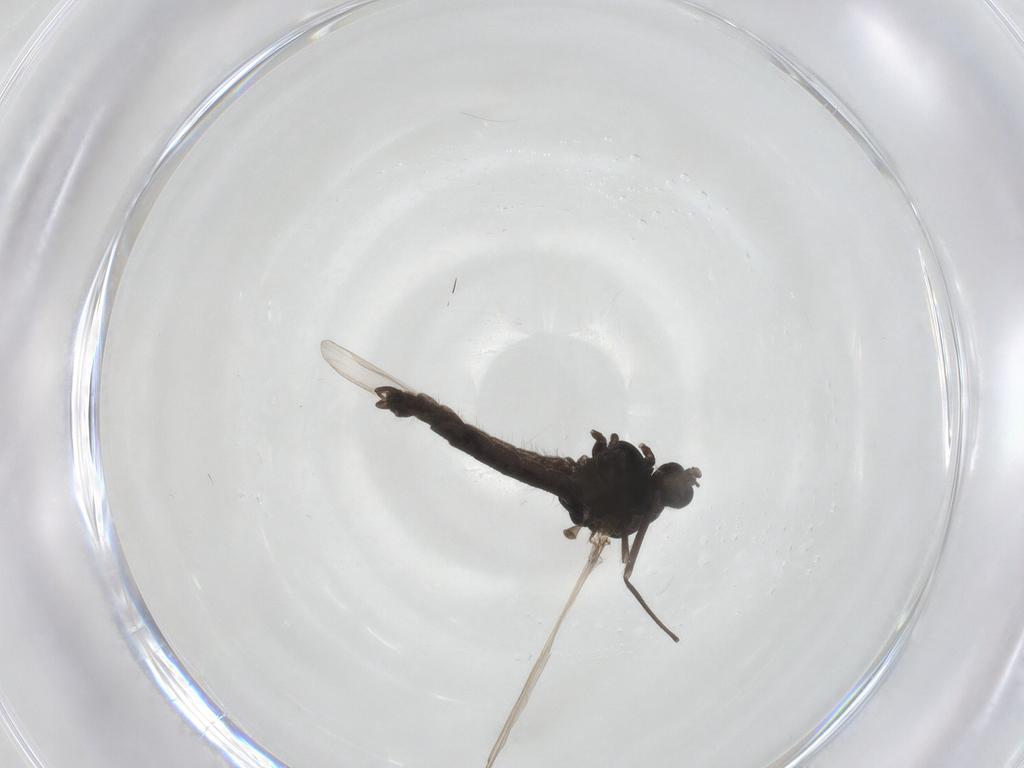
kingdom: Animalia
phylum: Arthropoda
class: Insecta
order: Diptera
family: Chironomidae
